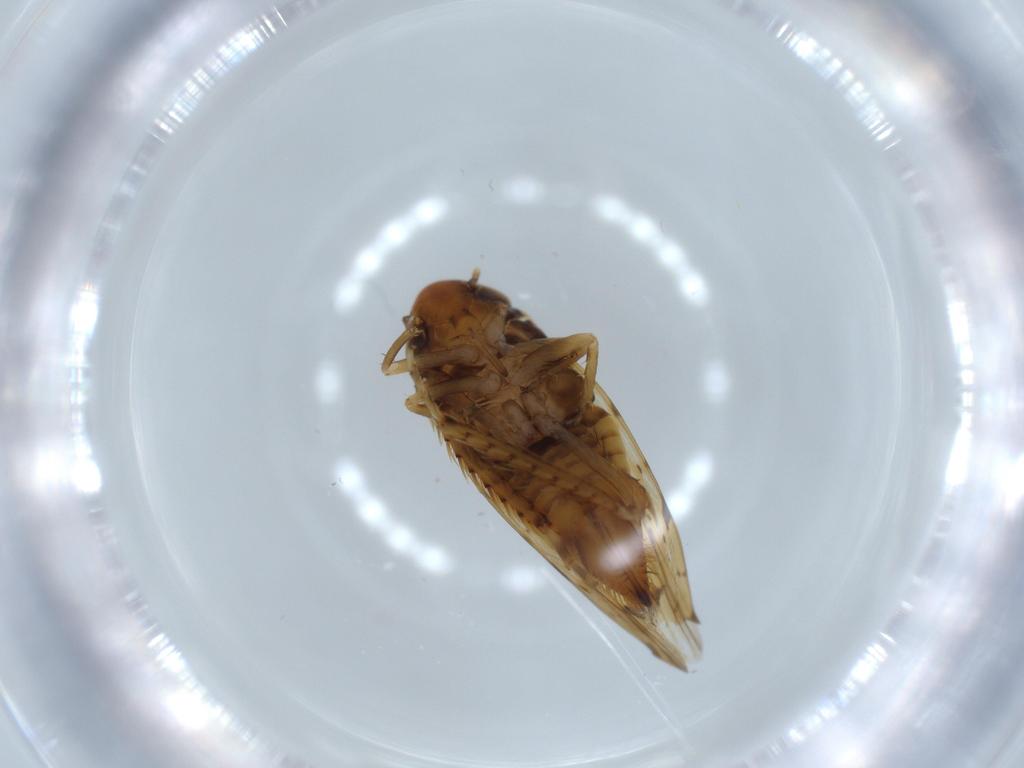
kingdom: Animalia
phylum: Arthropoda
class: Insecta
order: Hemiptera
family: Cicadellidae
